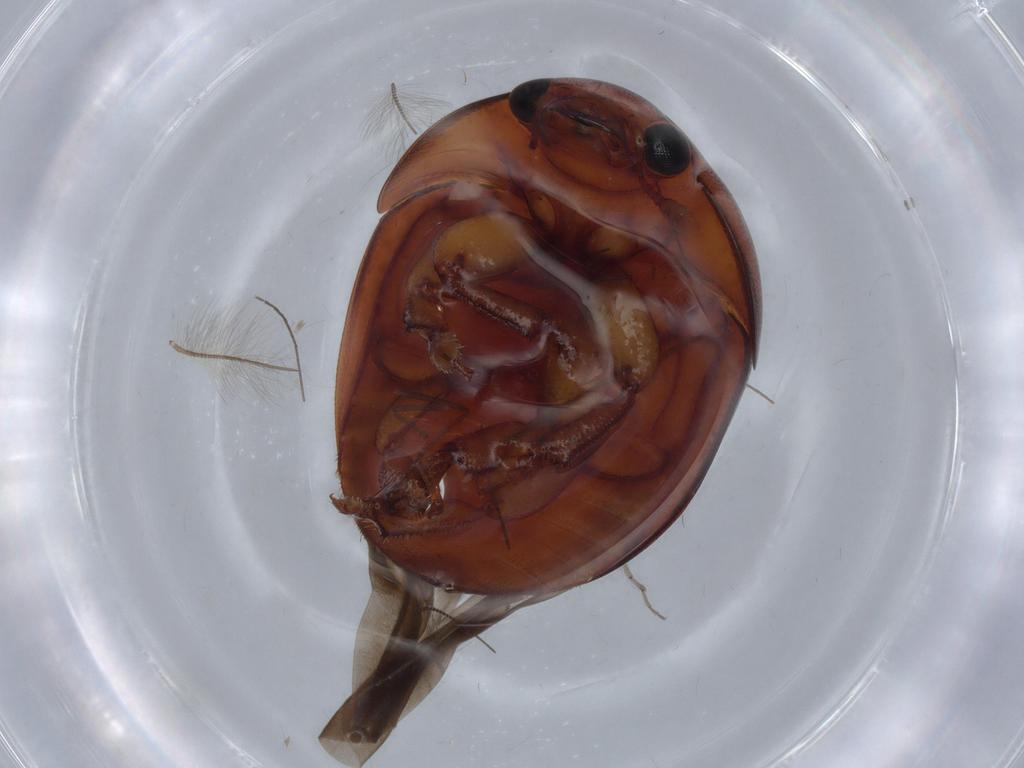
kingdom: Animalia
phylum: Arthropoda
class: Insecta
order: Coleoptera
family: Nitidulidae
